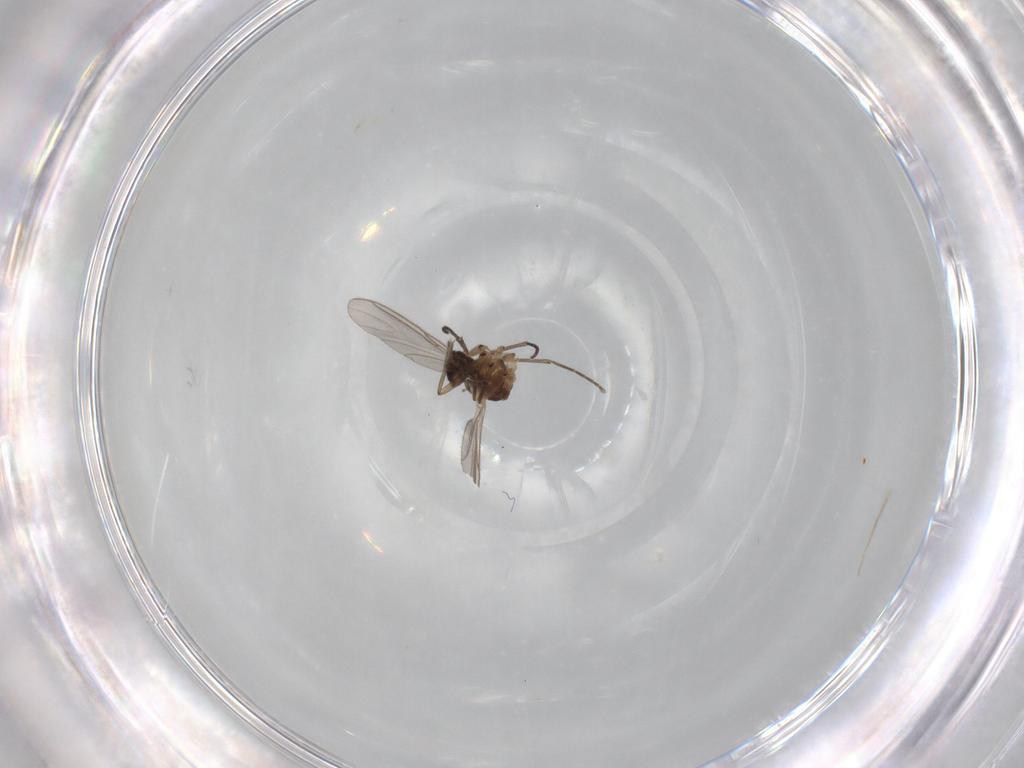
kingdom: Animalia
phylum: Arthropoda
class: Insecta
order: Diptera
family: Sciaridae
